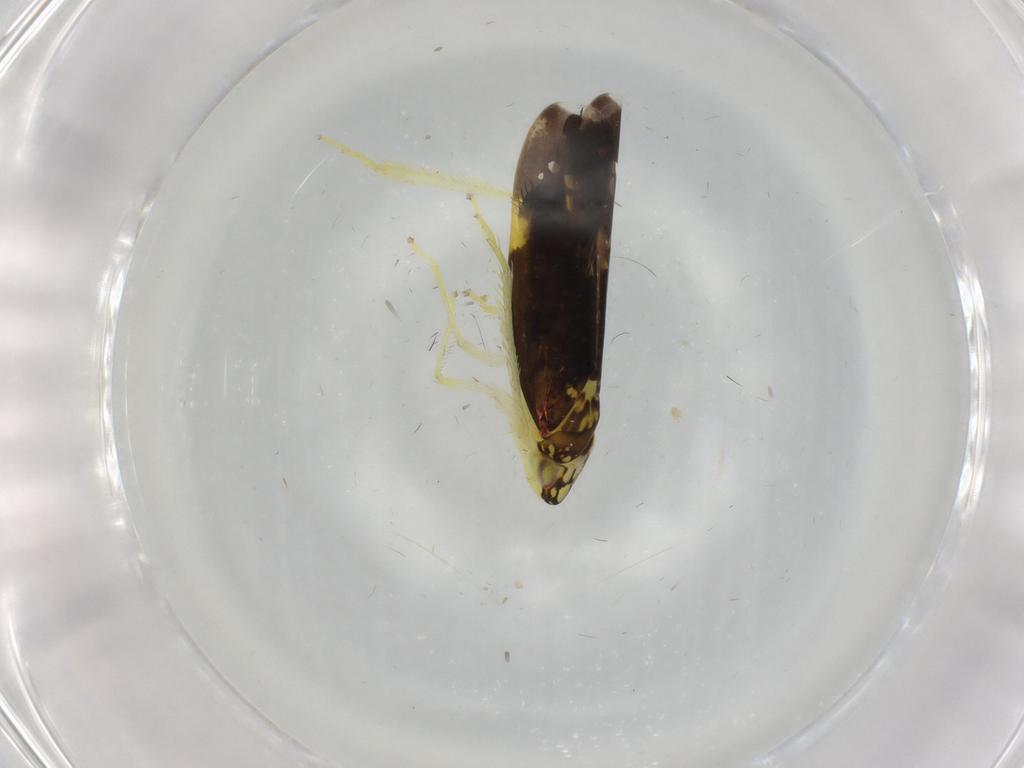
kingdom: Animalia
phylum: Arthropoda
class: Insecta
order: Hemiptera
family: Cicadellidae
